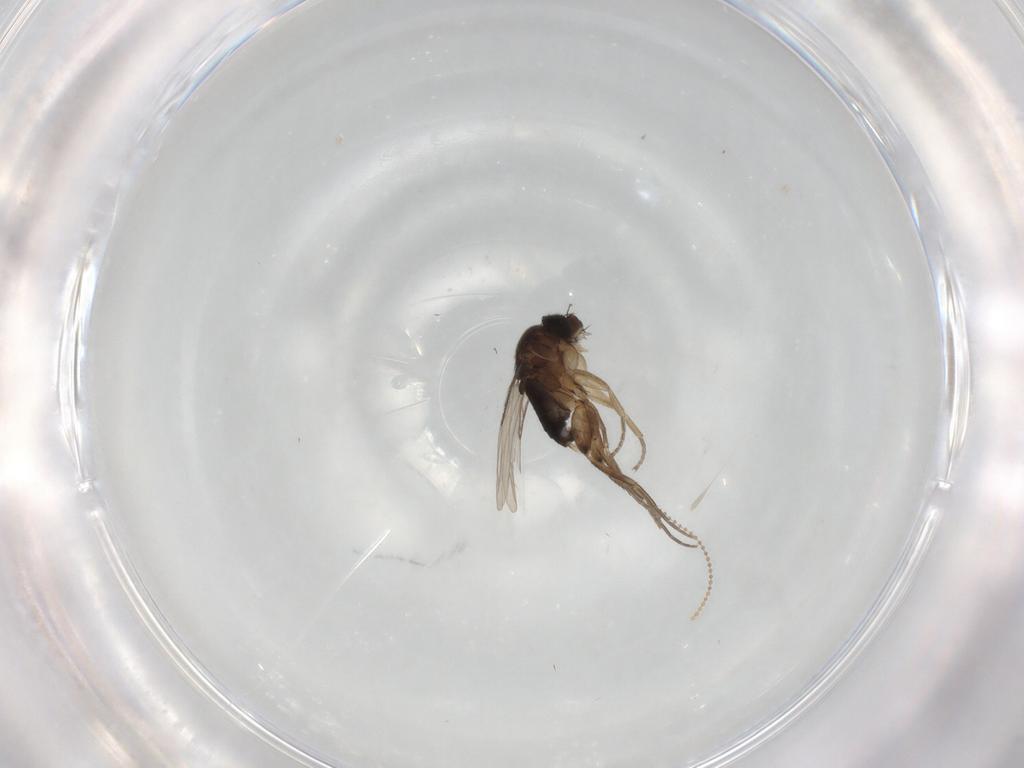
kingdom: Animalia
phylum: Arthropoda
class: Insecta
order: Diptera
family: Phoridae
